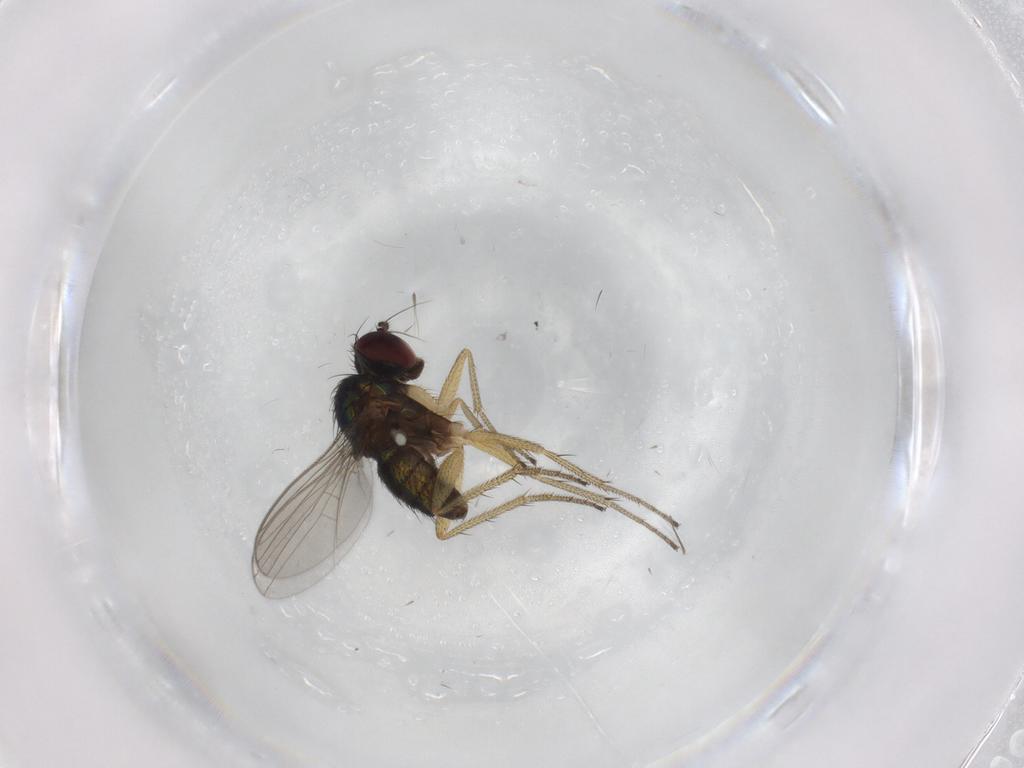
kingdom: Animalia
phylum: Arthropoda
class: Insecta
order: Diptera
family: Dolichopodidae
